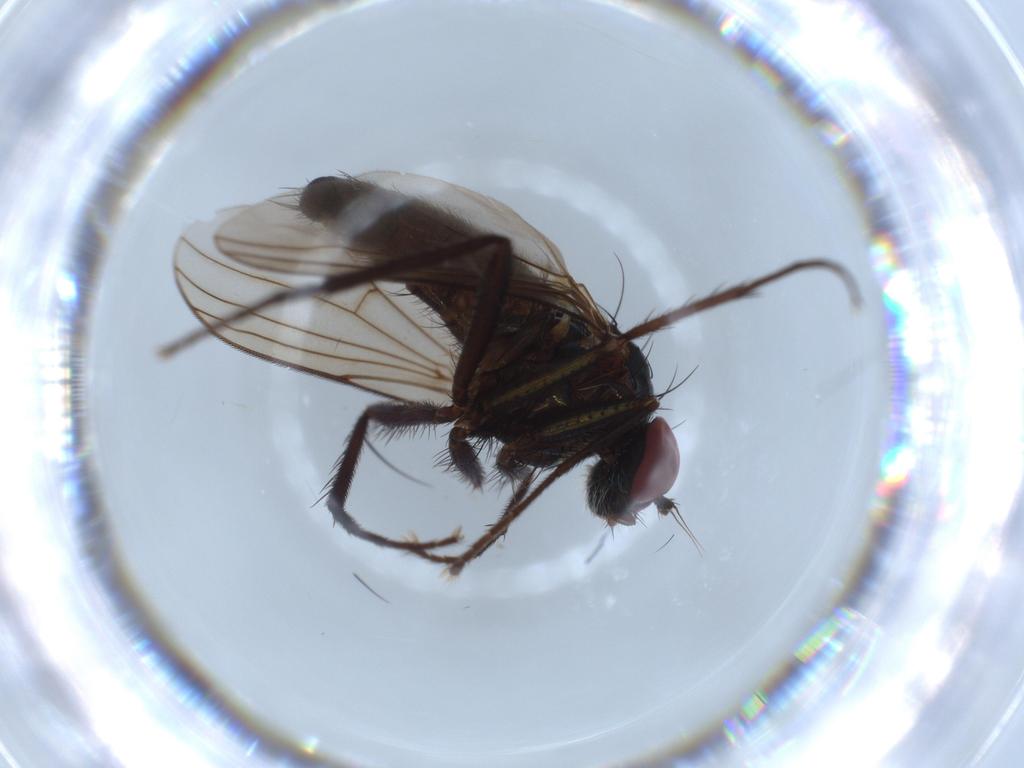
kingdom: Animalia
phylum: Arthropoda
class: Insecta
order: Diptera
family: Dolichopodidae
